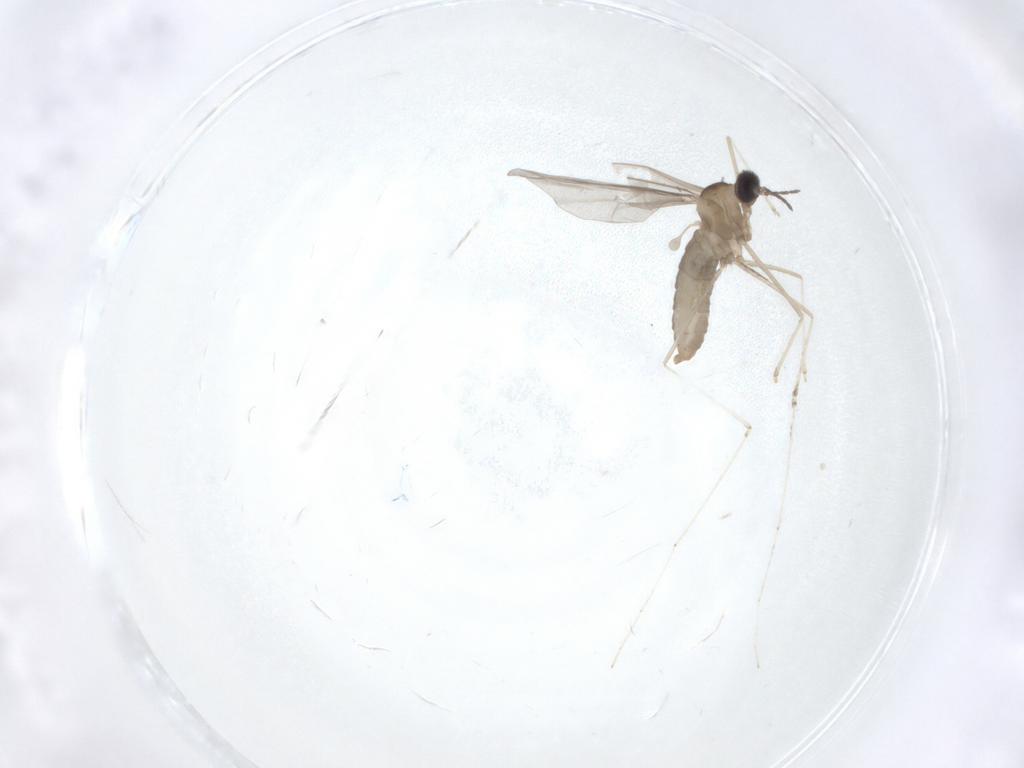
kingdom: Animalia
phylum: Arthropoda
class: Insecta
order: Diptera
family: Cecidomyiidae
